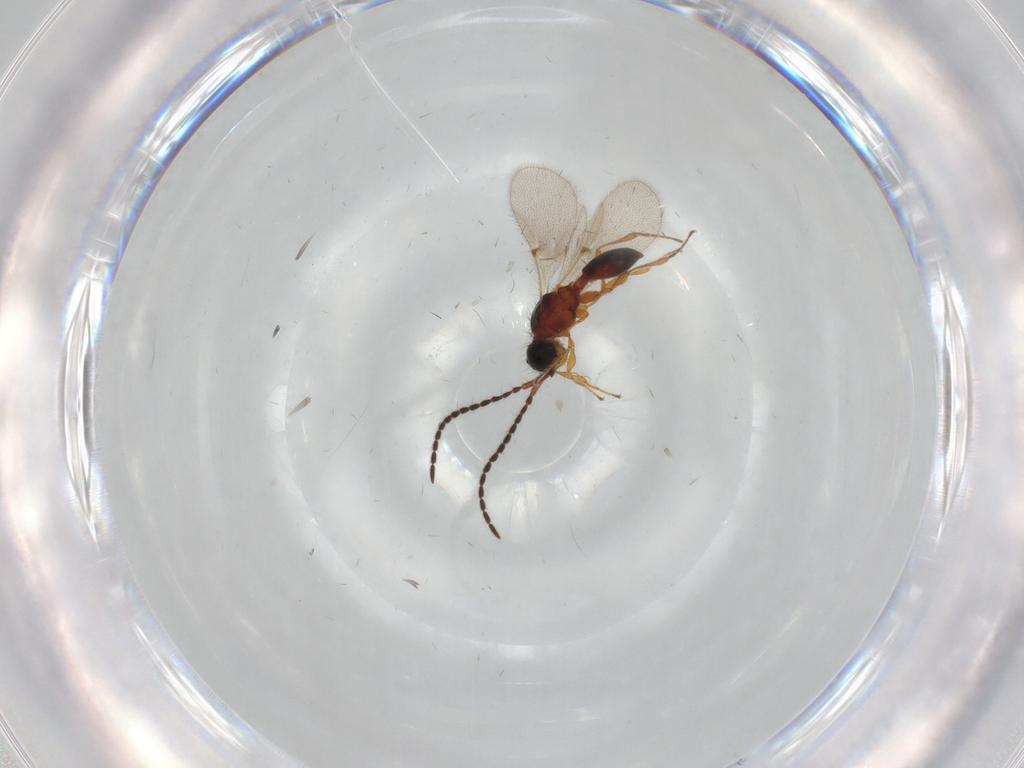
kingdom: Animalia
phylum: Arthropoda
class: Insecta
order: Hymenoptera
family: Diapriidae
